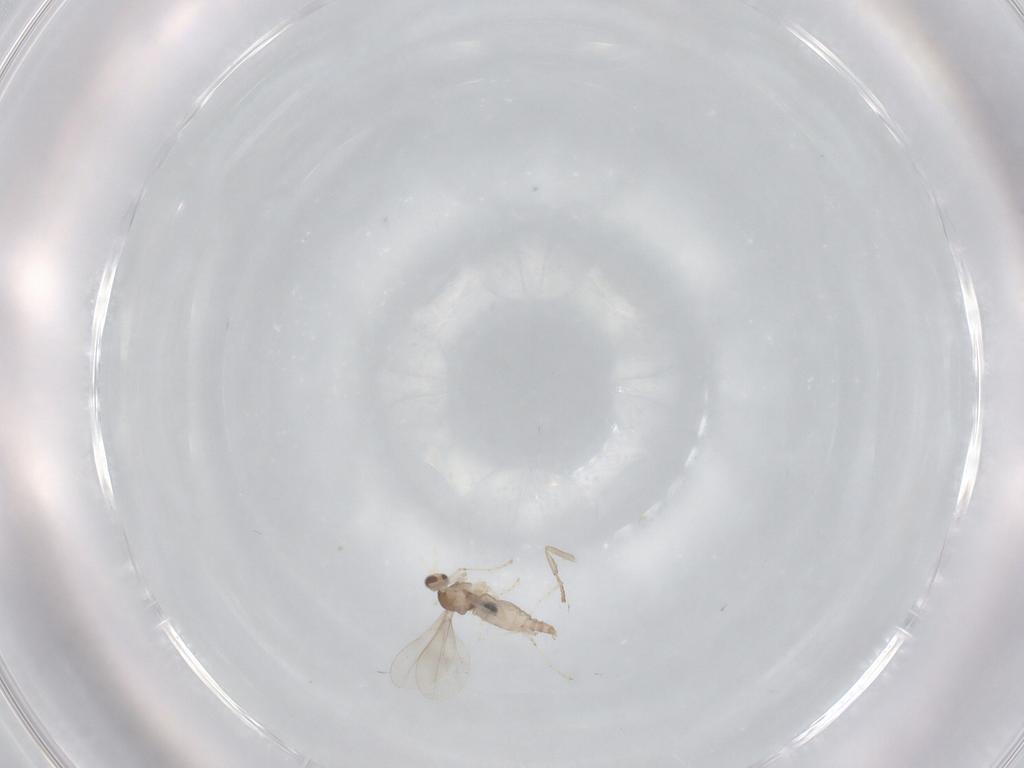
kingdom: Animalia
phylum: Arthropoda
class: Insecta
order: Diptera
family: Cecidomyiidae
